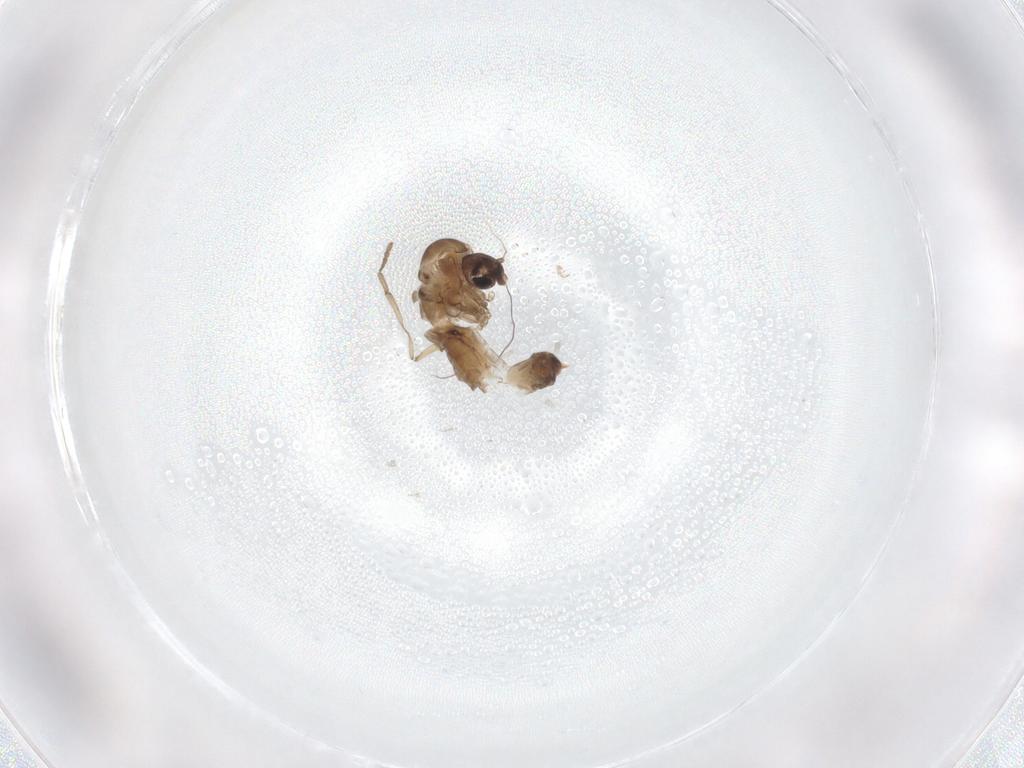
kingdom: Animalia
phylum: Arthropoda
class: Insecta
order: Diptera
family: Psychodidae
